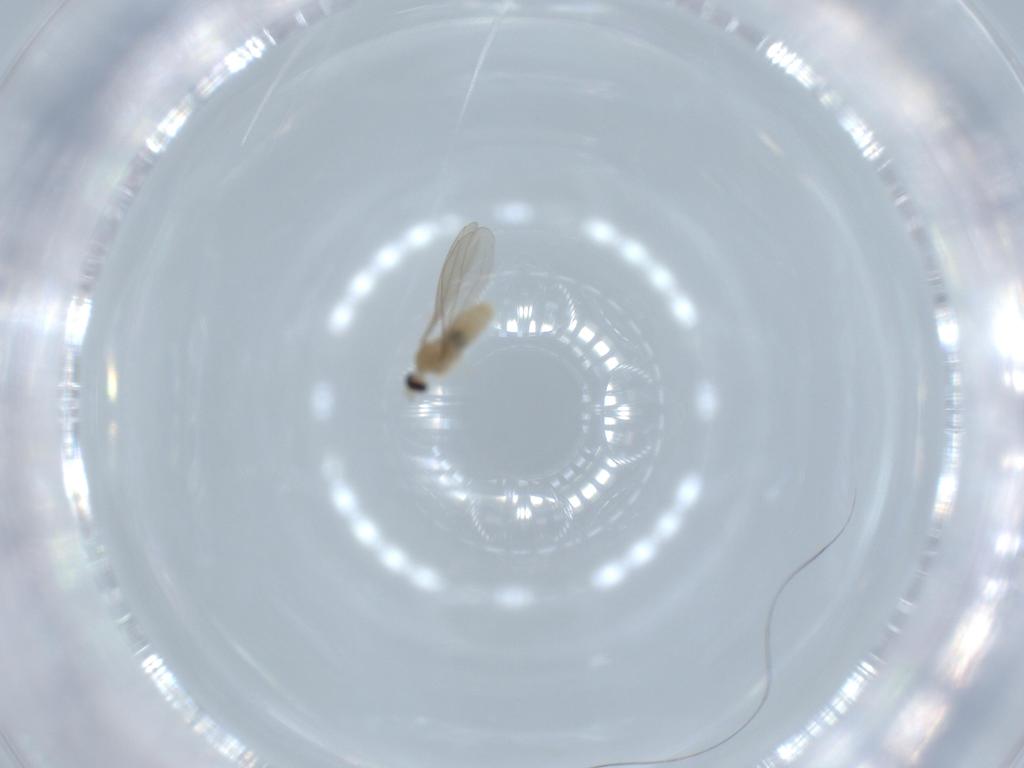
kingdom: Animalia
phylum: Arthropoda
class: Insecta
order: Diptera
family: Cecidomyiidae
